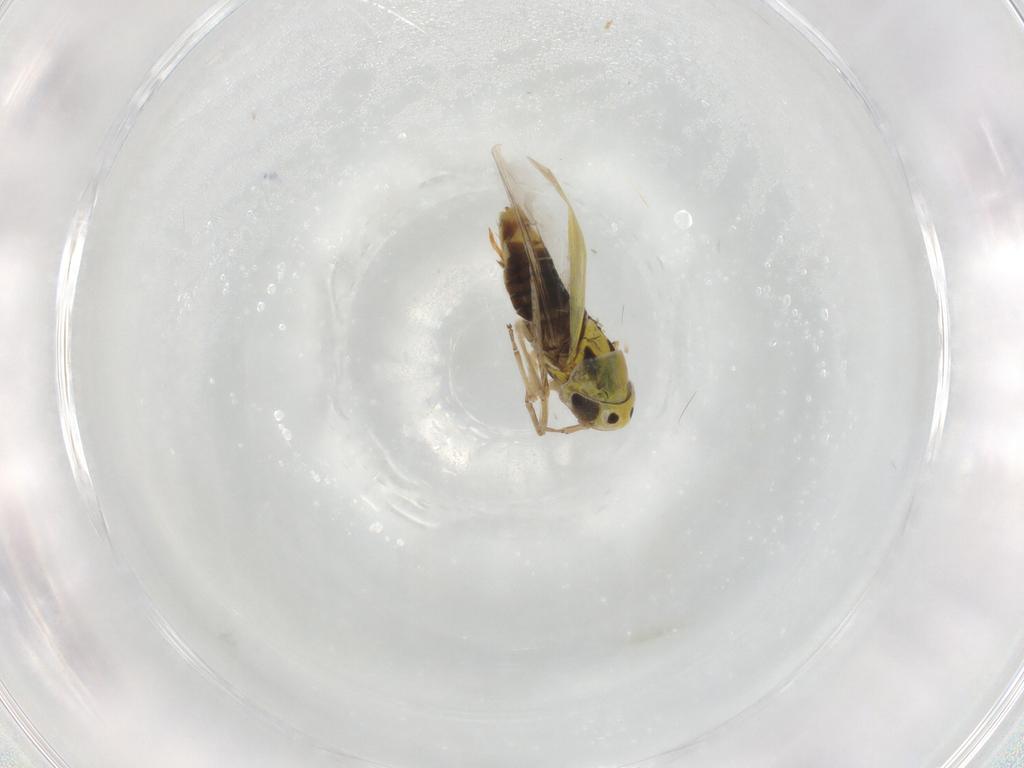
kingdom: Animalia
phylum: Arthropoda
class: Insecta
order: Hemiptera
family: Cicadellidae
